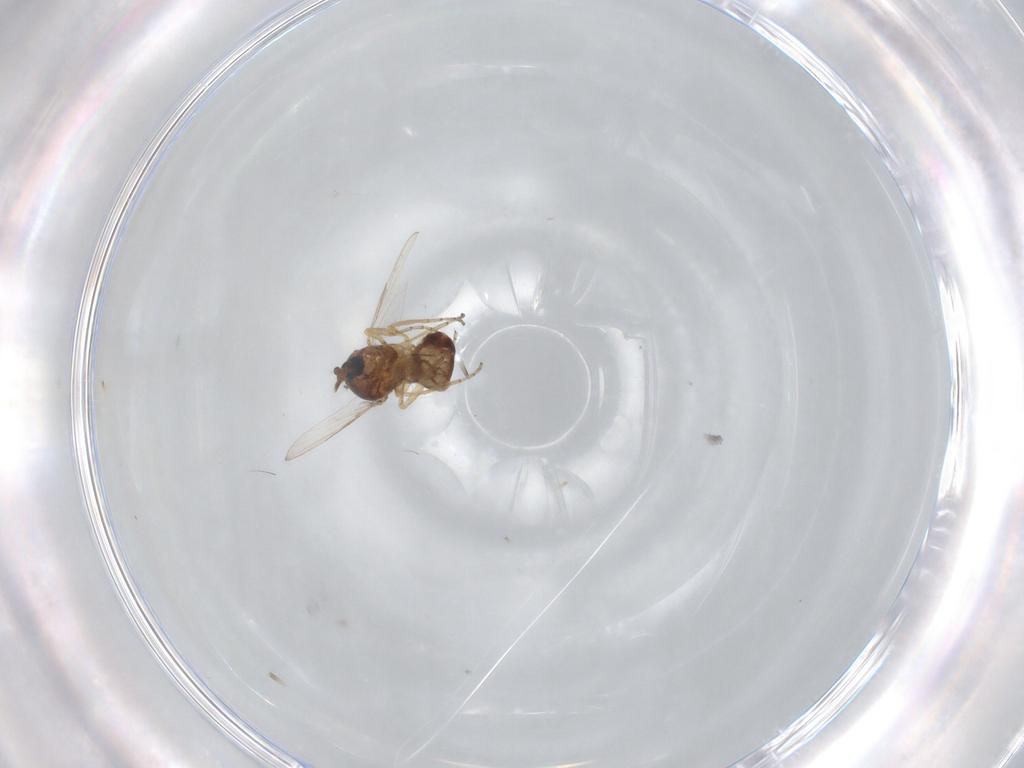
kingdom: Animalia
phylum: Arthropoda
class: Insecta
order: Diptera
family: Ceratopogonidae
